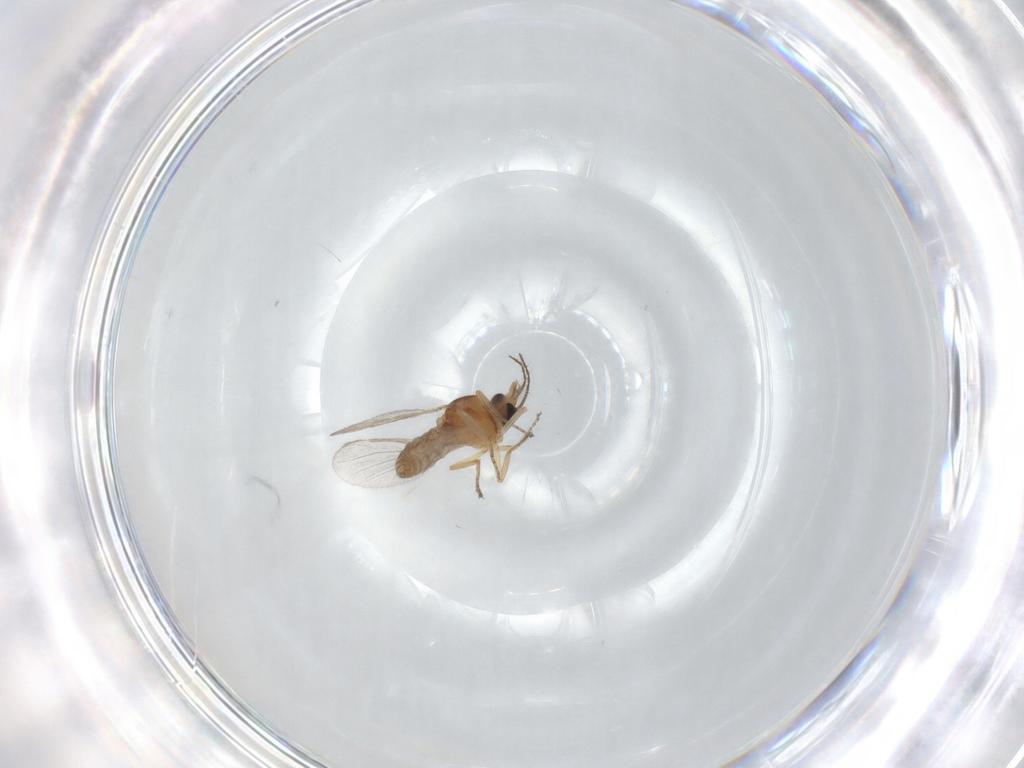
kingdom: Animalia
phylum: Arthropoda
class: Insecta
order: Diptera
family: Ceratopogonidae
